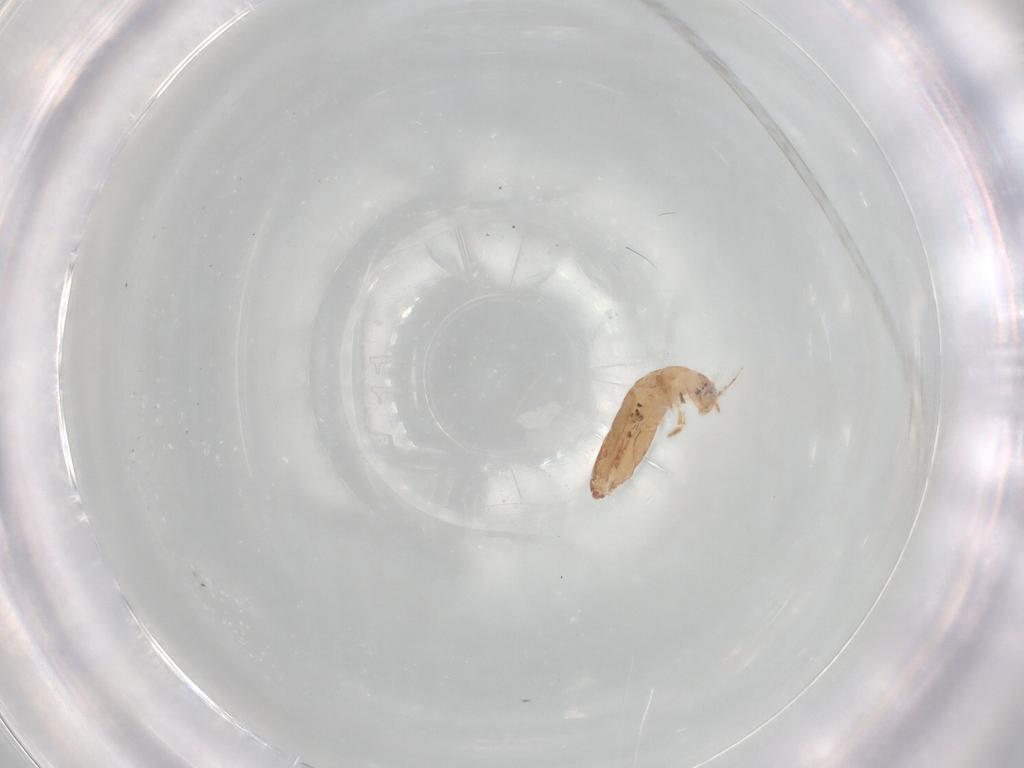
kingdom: Animalia
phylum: Arthropoda
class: Collembola
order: Entomobryomorpha
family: Entomobryidae
